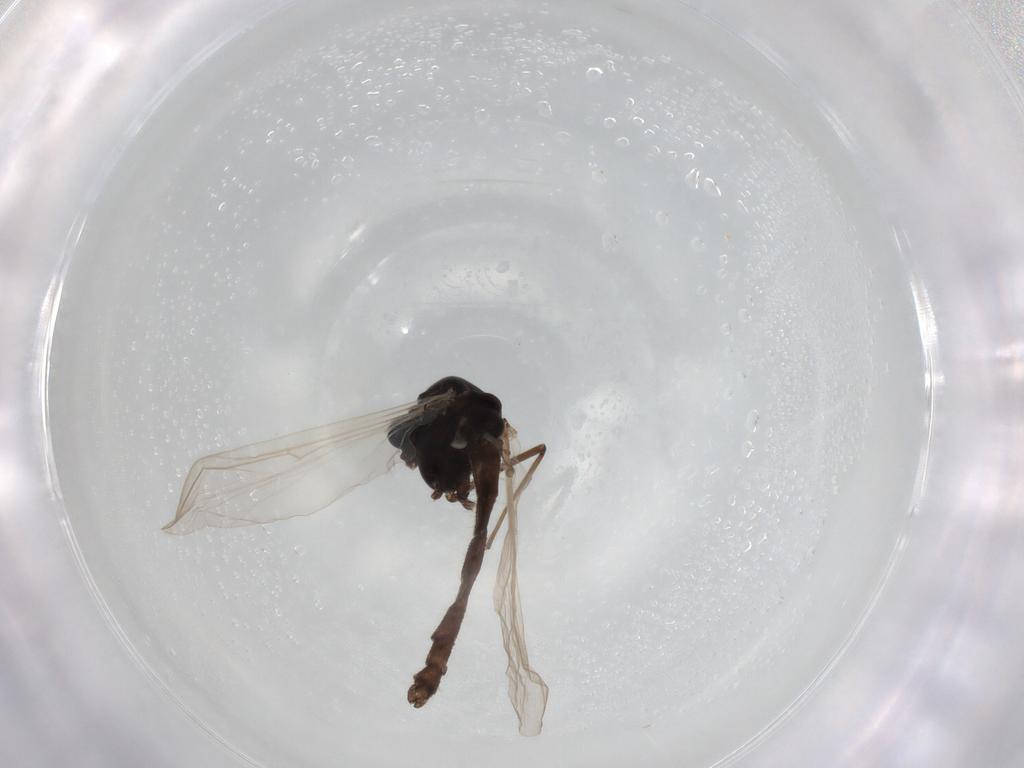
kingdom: Animalia
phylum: Arthropoda
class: Insecta
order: Diptera
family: Chironomidae
